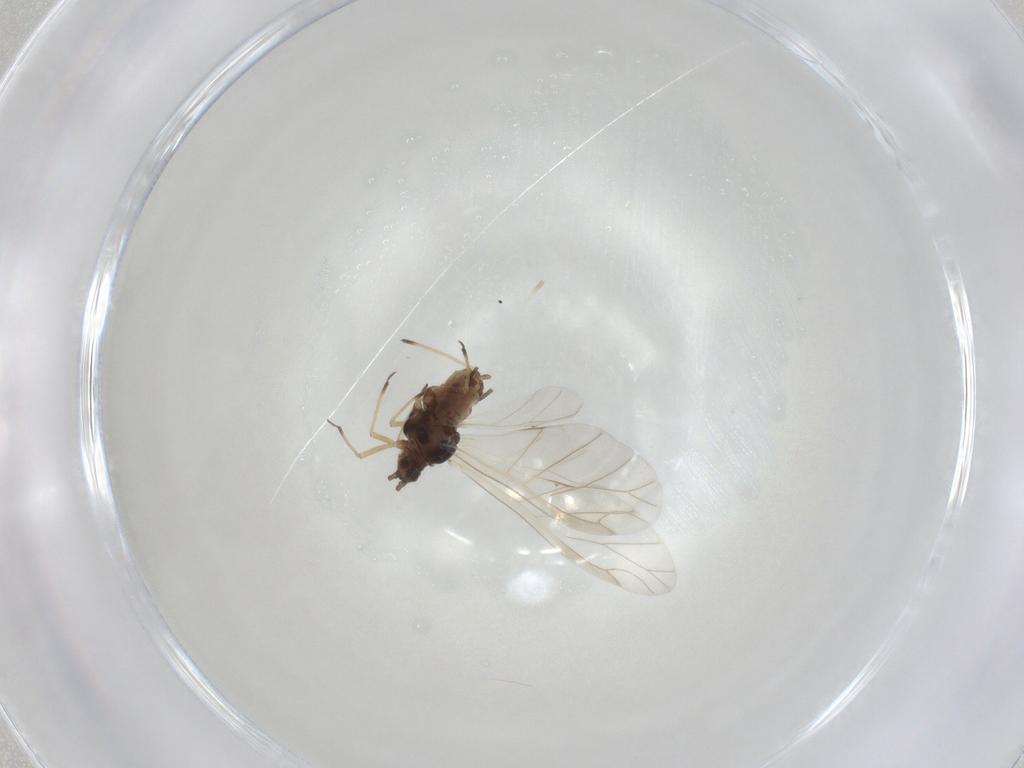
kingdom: Animalia
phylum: Arthropoda
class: Insecta
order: Hemiptera
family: Aphididae
